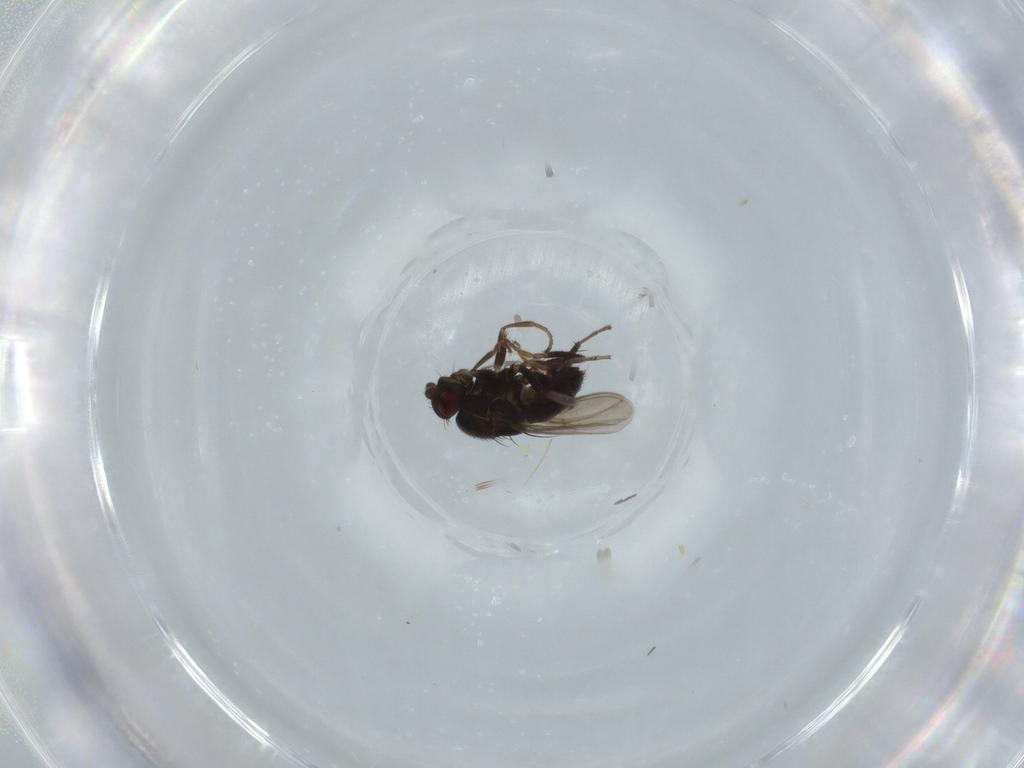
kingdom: Animalia
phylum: Arthropoda
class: Insecta
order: Diptera
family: Sphaeroceridae
